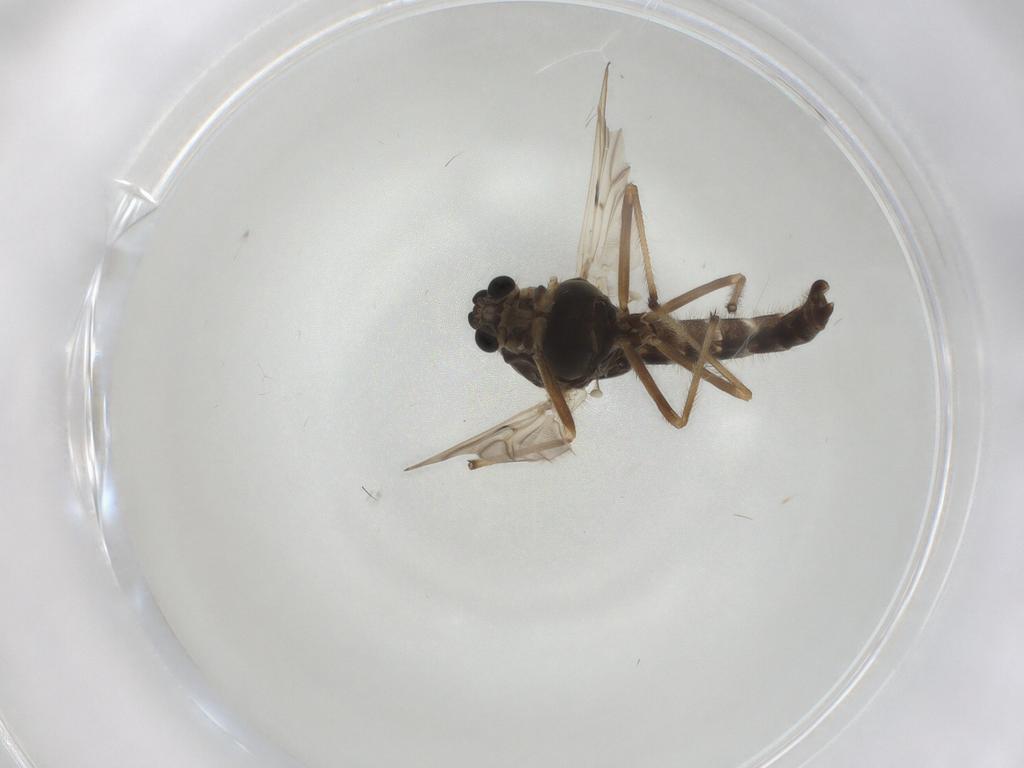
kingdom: Animalia
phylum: Arthropoda
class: Insecta
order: Diptera
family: Chironomidae
